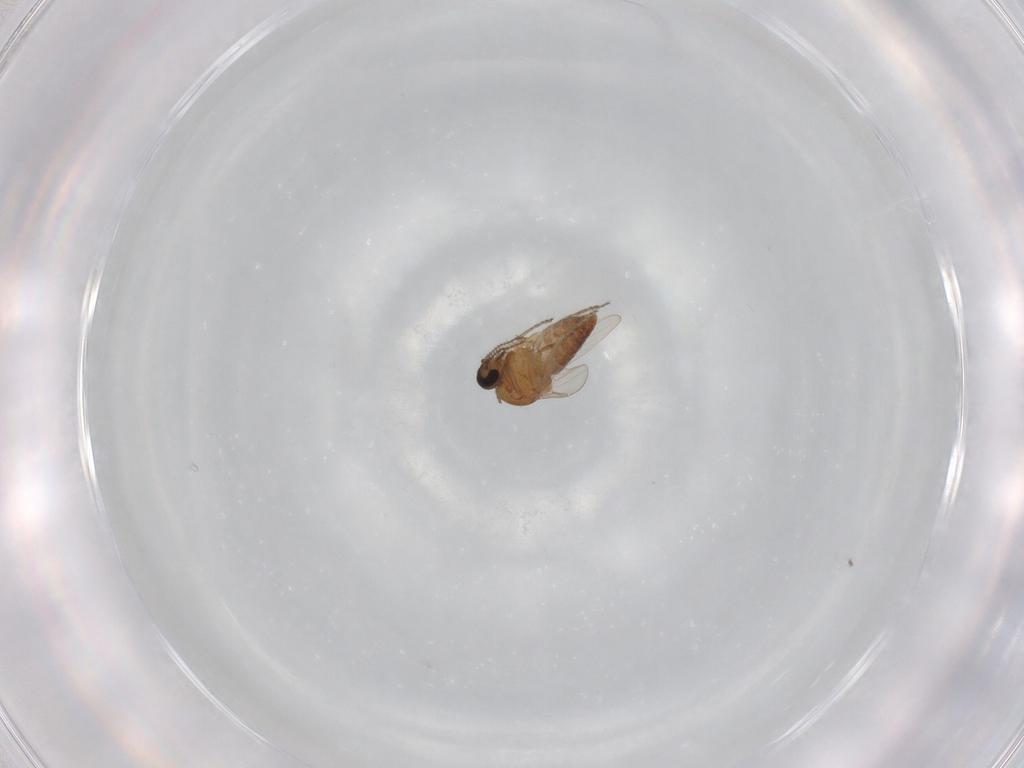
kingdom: Animalia
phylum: Arthropoda
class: Insecta
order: Diptera
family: Ceratopogonidae
